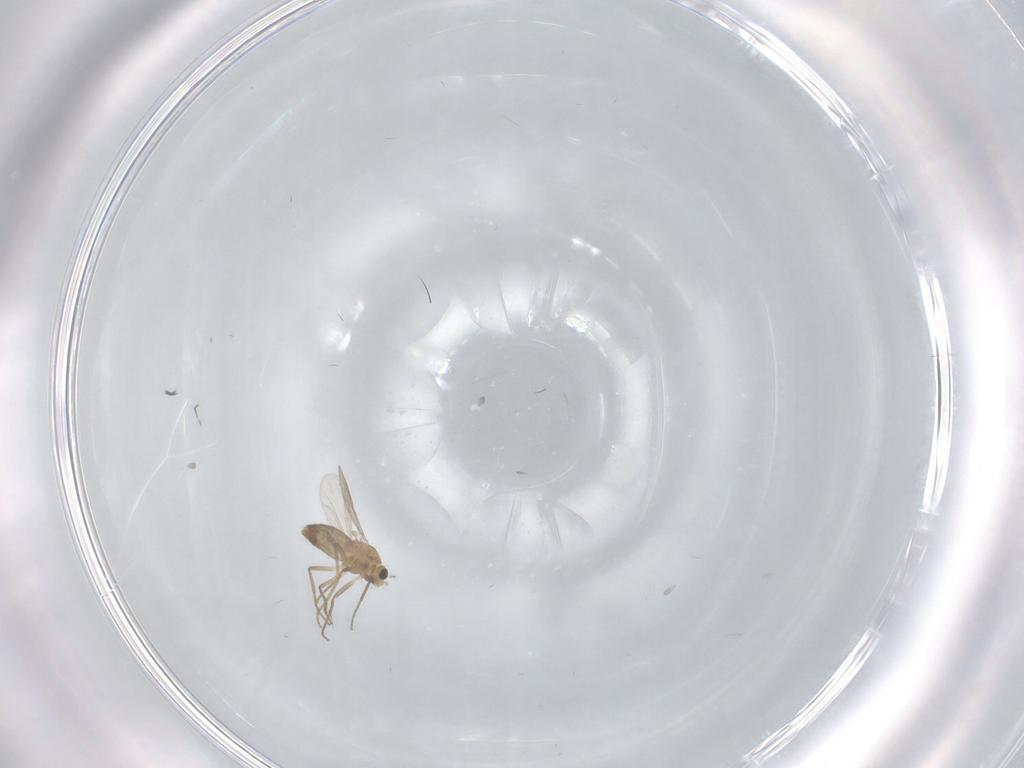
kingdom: Animalia
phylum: Arthropoda
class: Insecta
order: Diptera
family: Chironomidae
